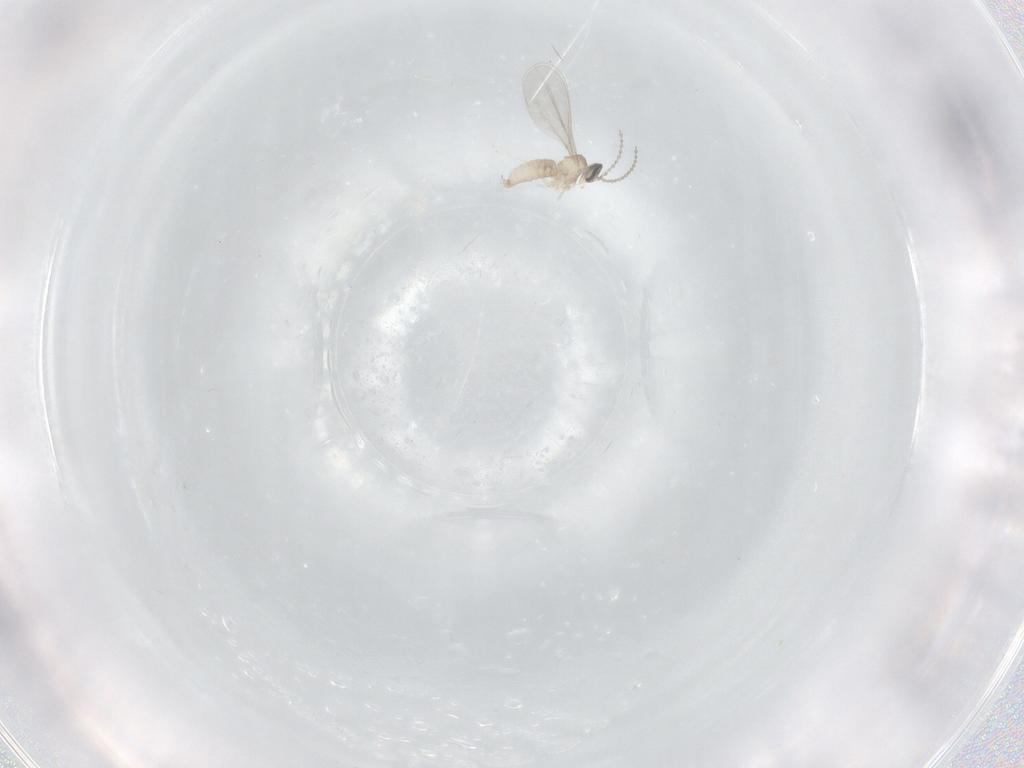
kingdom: Animalia
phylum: Arthropoda
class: Insecta
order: Diptera
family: Cecidomyiidae
